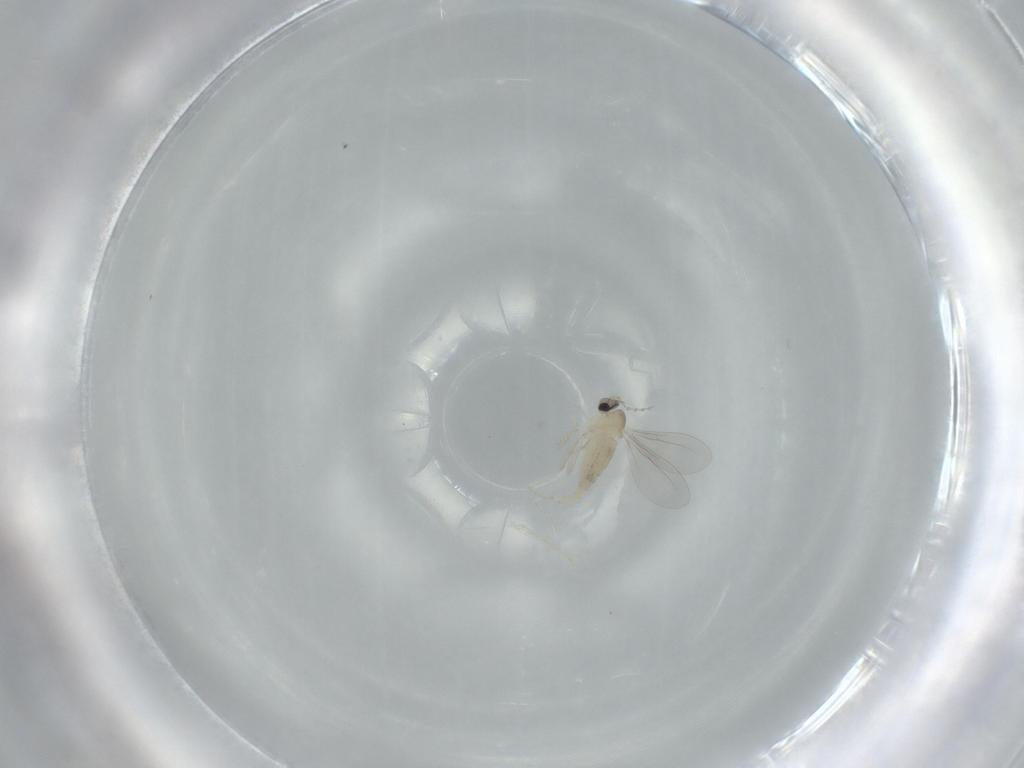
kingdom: Animalia
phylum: Arthropoda
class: Insecta
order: Diptera
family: Cecidomyiidae
